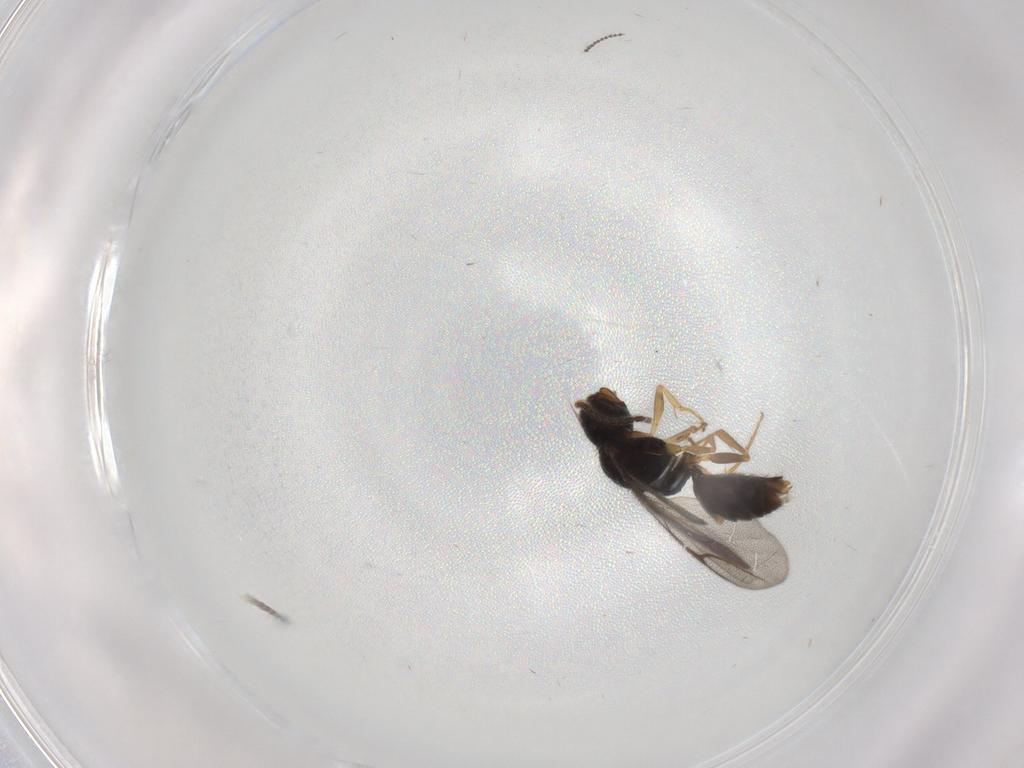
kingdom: Animalia
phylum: Arthropoda
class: Insecta
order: Hymenoptera
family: Bethylidae
